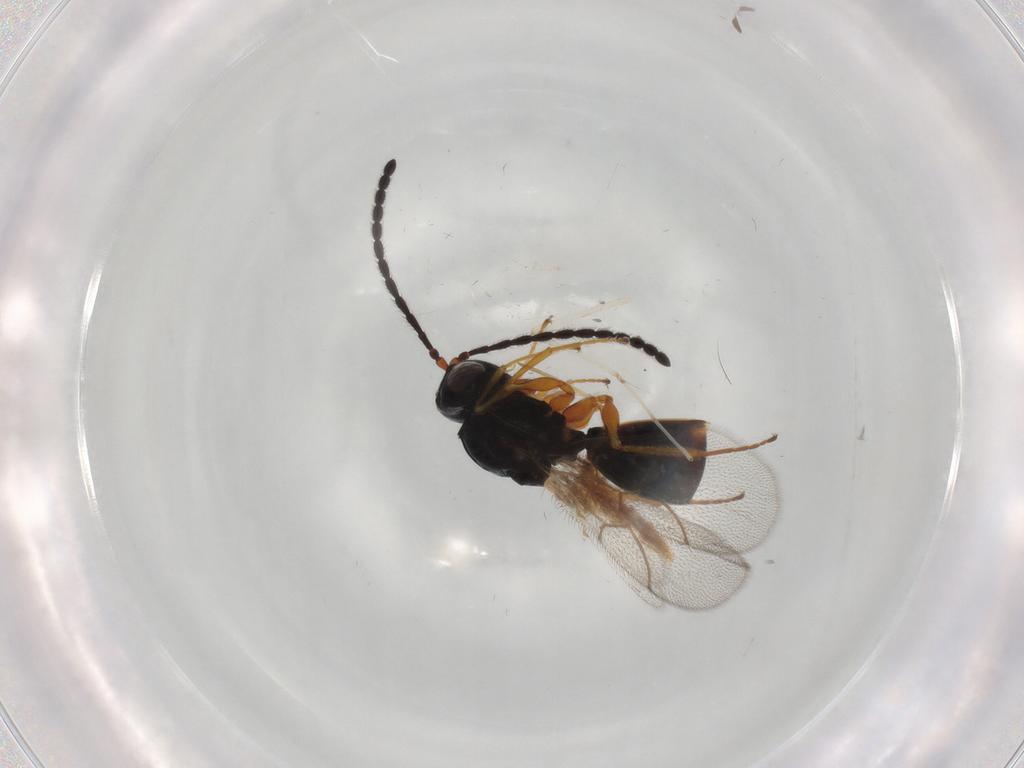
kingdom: Animalia
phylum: Arthropoda
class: Insecta
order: Hymenoptera
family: Figitidae
